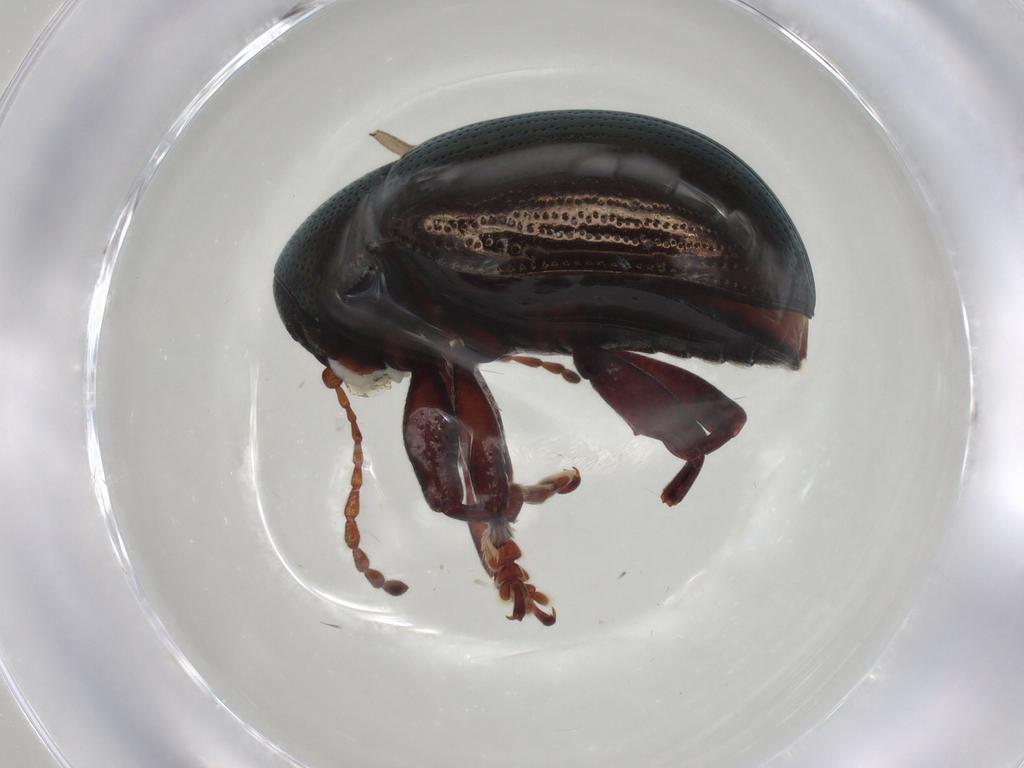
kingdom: Animalia
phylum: Arthropoda
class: Insecta
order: Coleoptera
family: Chrysomelidae
